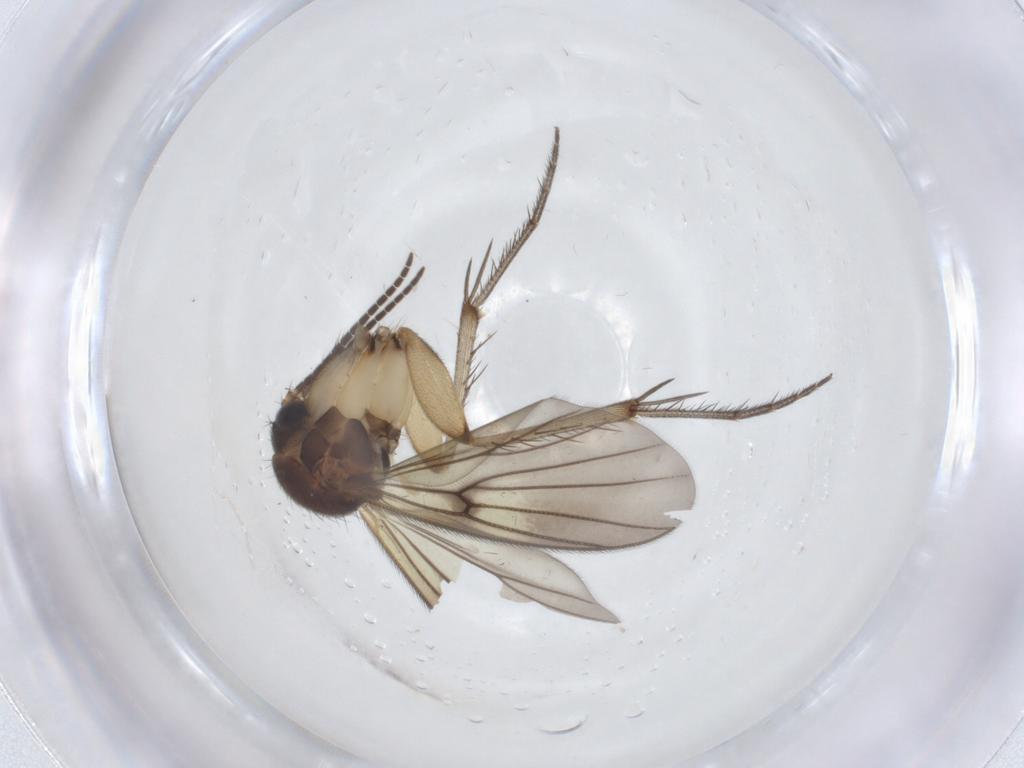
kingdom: Animalia
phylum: Arthropoda
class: Insecta
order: Diptera
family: Mycetophilidae
